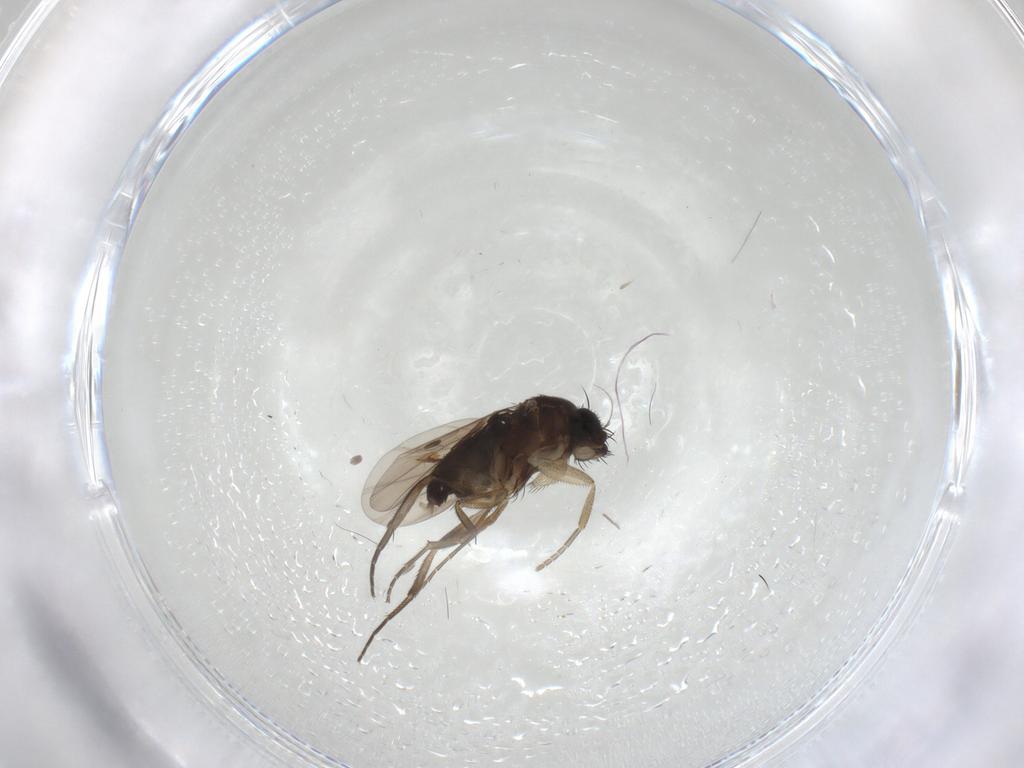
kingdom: Animalia
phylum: Arthropoda
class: Insecta
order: Diptera
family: Phoridae
